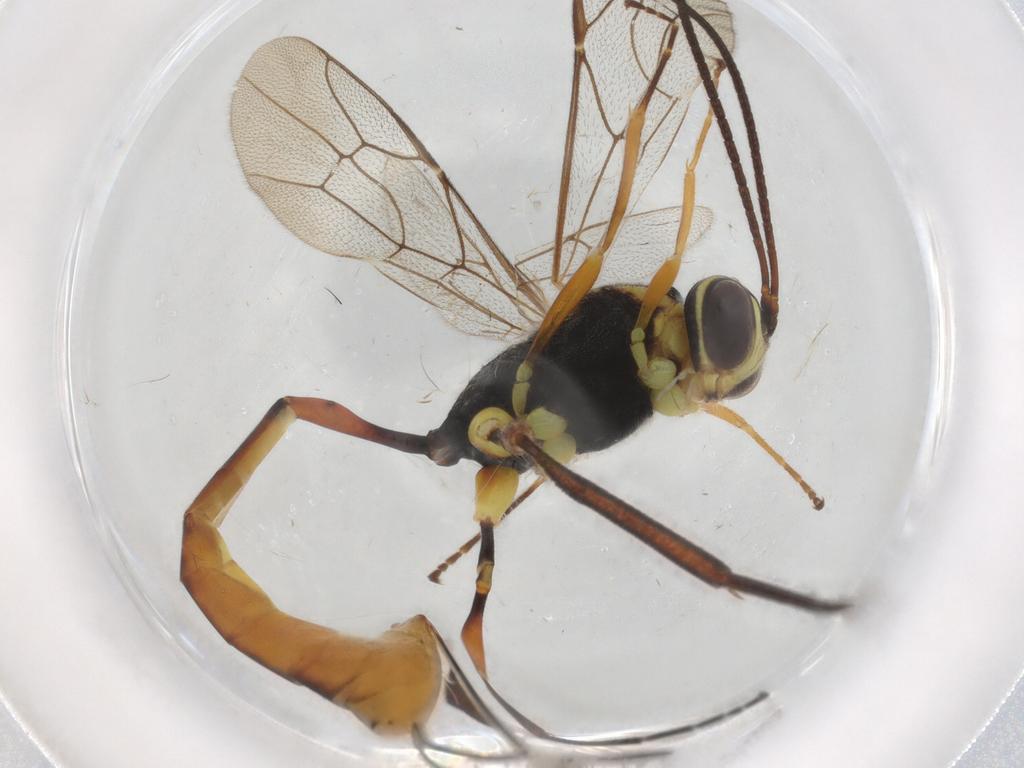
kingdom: Animalia
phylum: Arthropoda
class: Insecta
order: Hymenoptera
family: Ichneumonidae
